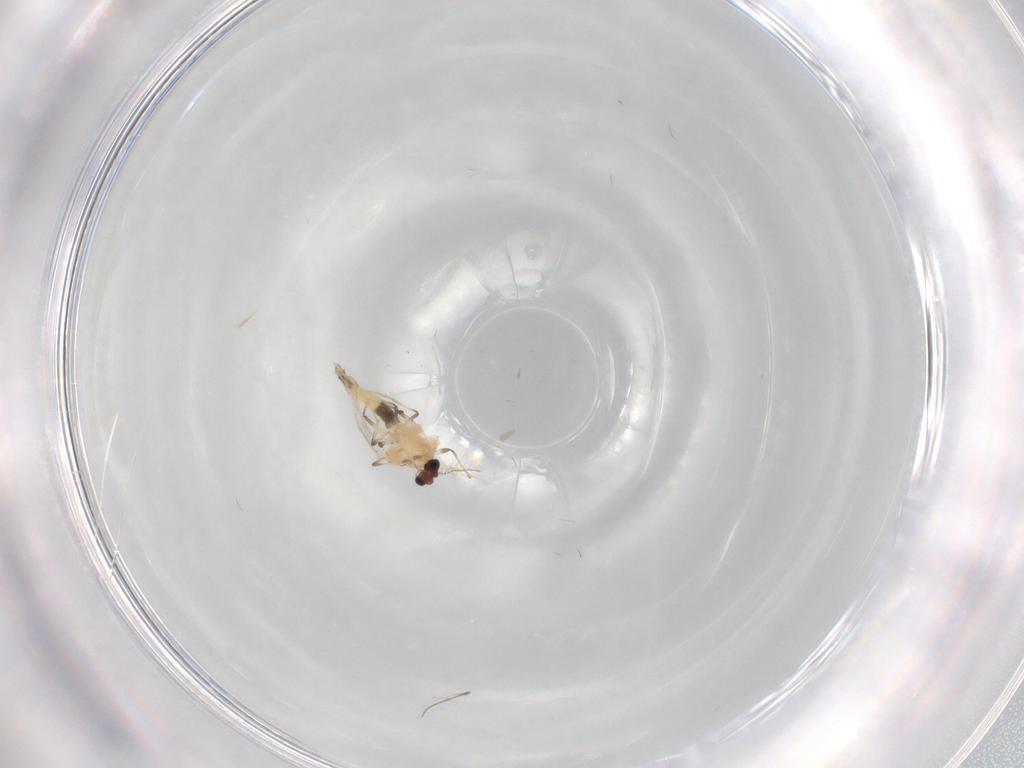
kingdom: Animalia
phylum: Arthropoda
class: Insecta
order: Diptera
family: Chironomidae
